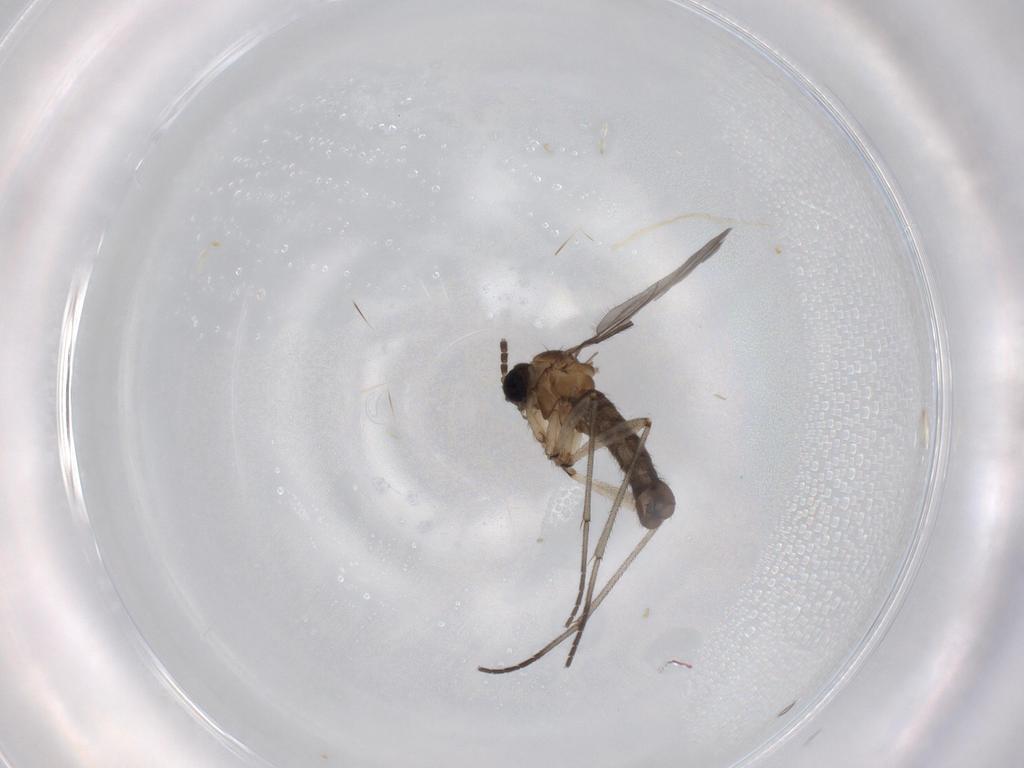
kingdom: Animalia
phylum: Arthropoda
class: Insecta
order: Diptera
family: Sciaridae
